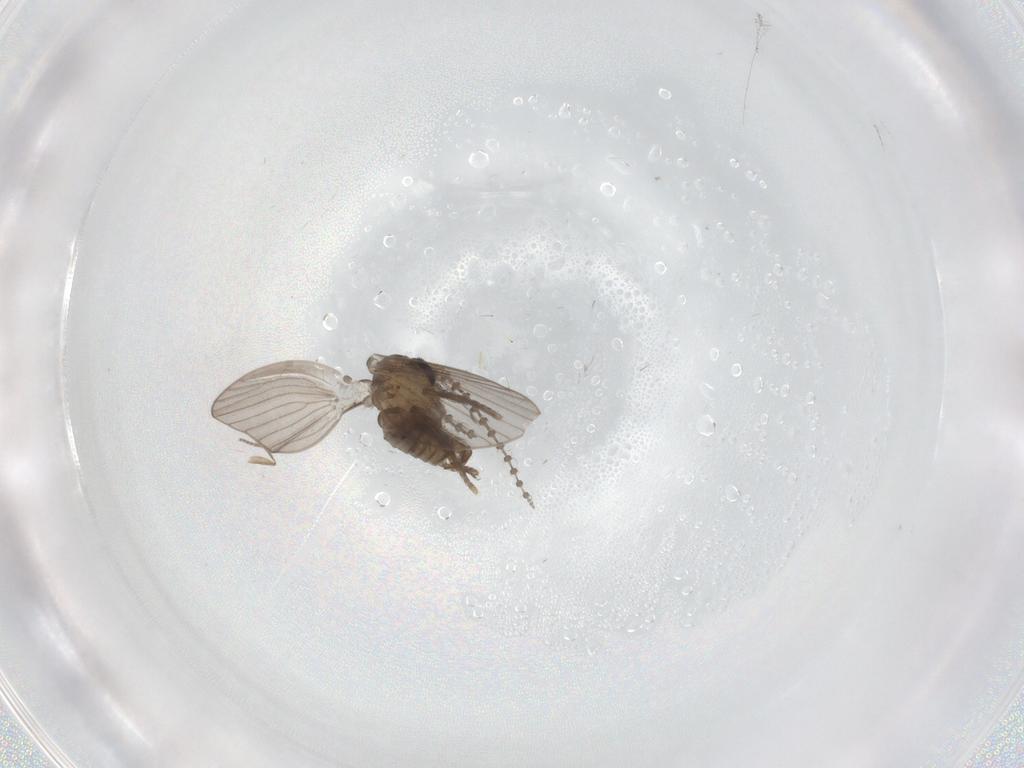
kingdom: Animalia
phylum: Arthropoda
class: Insecta
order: Diptera
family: Psychodidae
